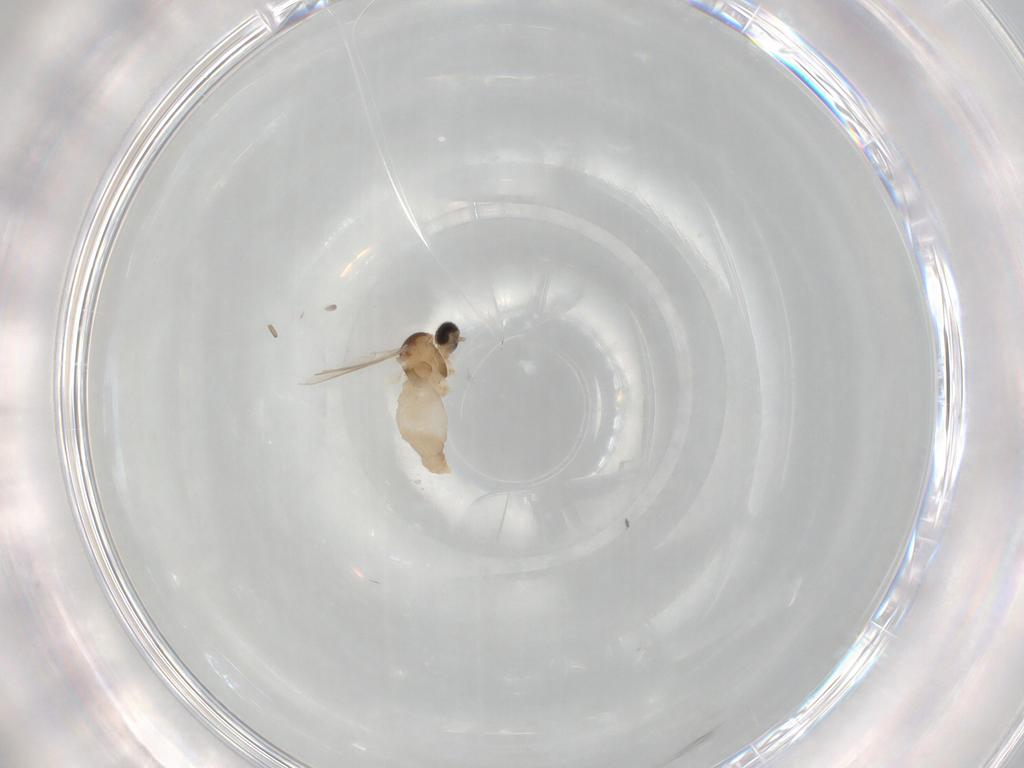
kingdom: Animalia
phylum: Arthropoda
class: Insecta
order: Diptera
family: Cecidomyiidae
